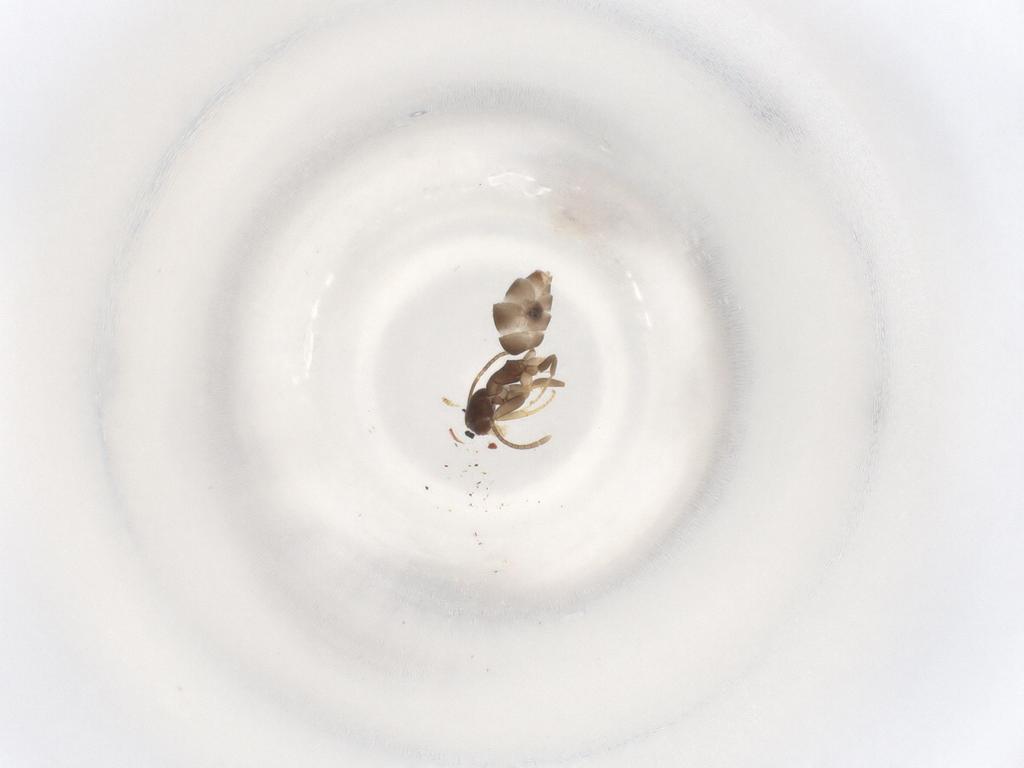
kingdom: Animalia
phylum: Arthropoda
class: Insecta
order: Hymenoptera
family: Formicidae
